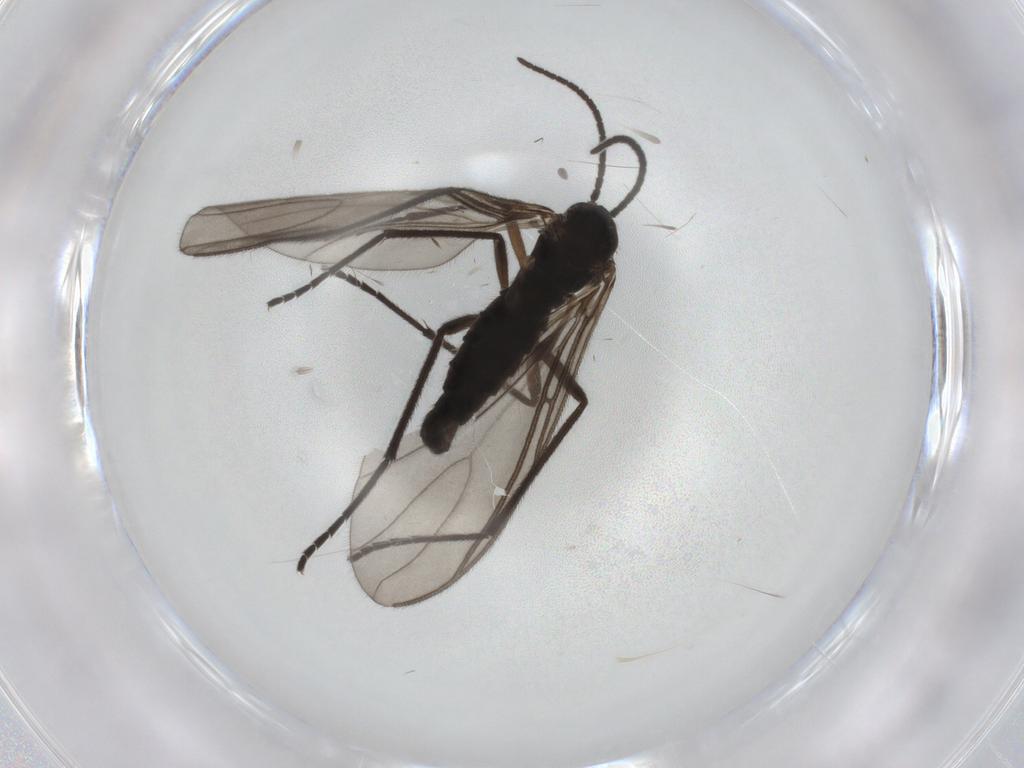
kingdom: Animalia
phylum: Arthropoda
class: Insecta
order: Diptera
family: Sciaridae
